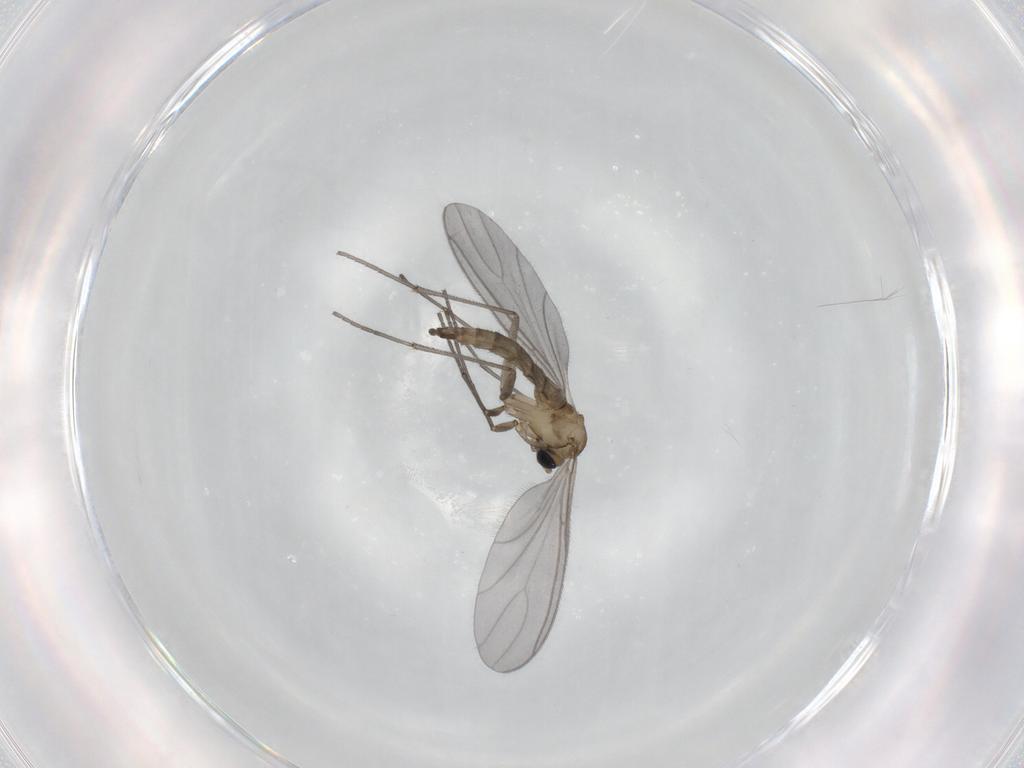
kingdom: Animalia
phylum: Arthropoda
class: Insecta
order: Diptera
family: Sciaridae
